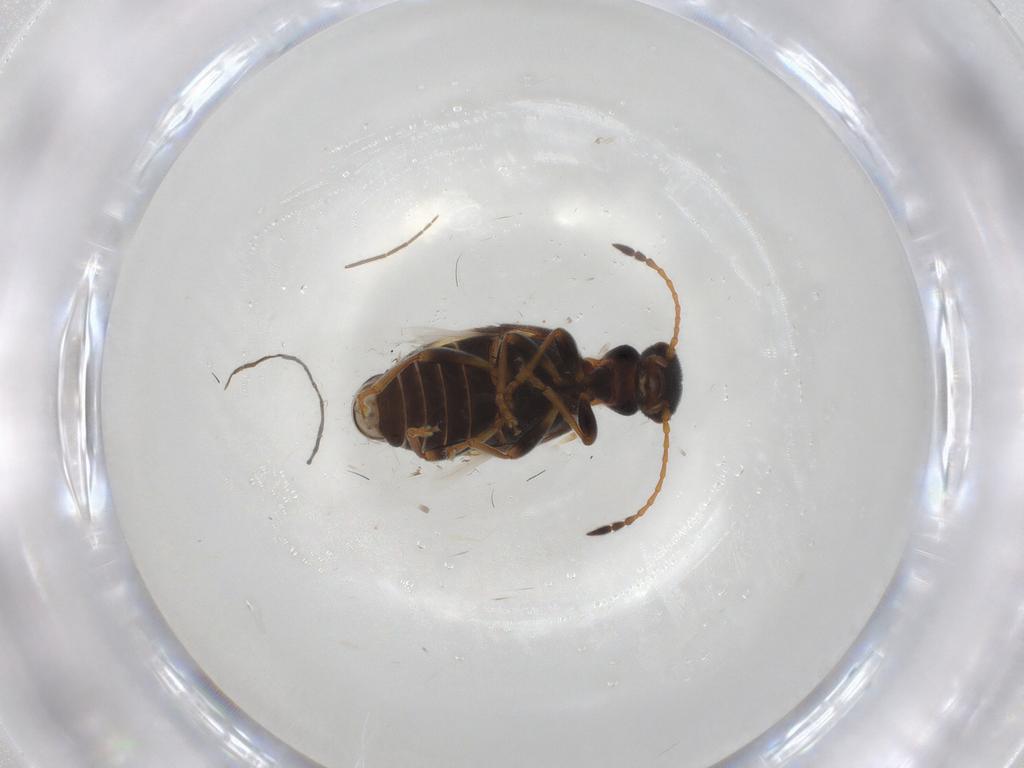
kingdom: Animalia
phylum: Arthropoda
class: Insecta
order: Coleoptera
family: Anthicidae
